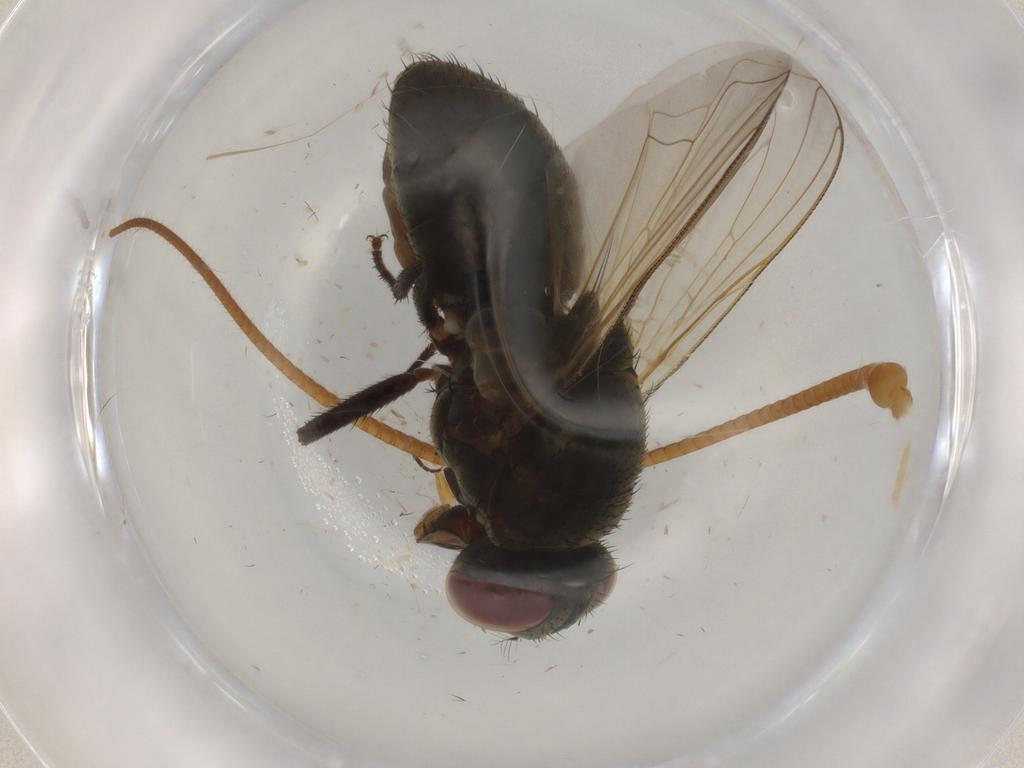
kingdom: Animalia
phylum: Arthropoda
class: Insecta
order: Diptera
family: Muscidae
